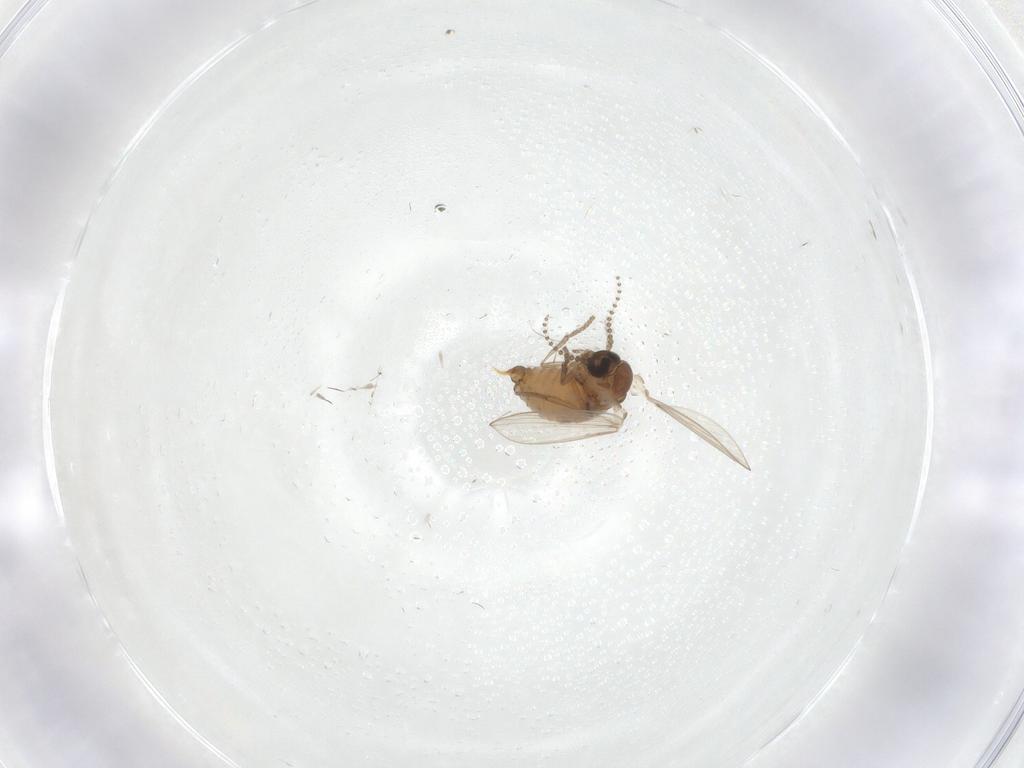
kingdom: Animalia
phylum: Arthropoda
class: Insecta
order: Diptera
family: Psychodidae
